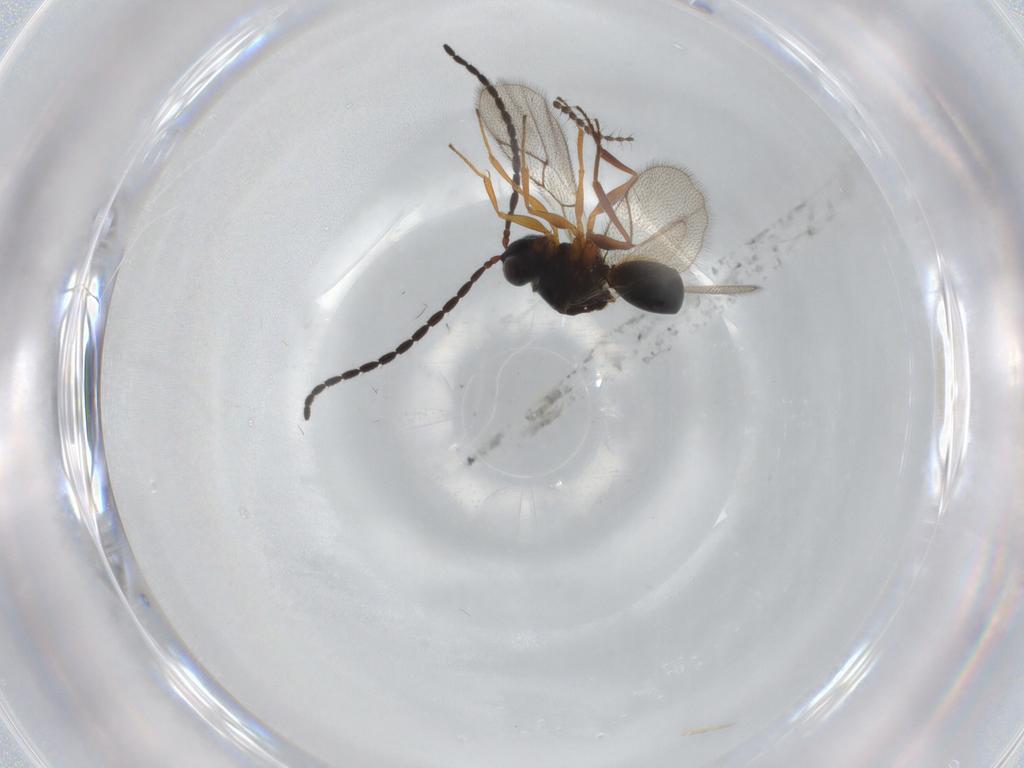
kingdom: Animalia
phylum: Arthropoda
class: Insecta
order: Hymenoptera
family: Figitidae
